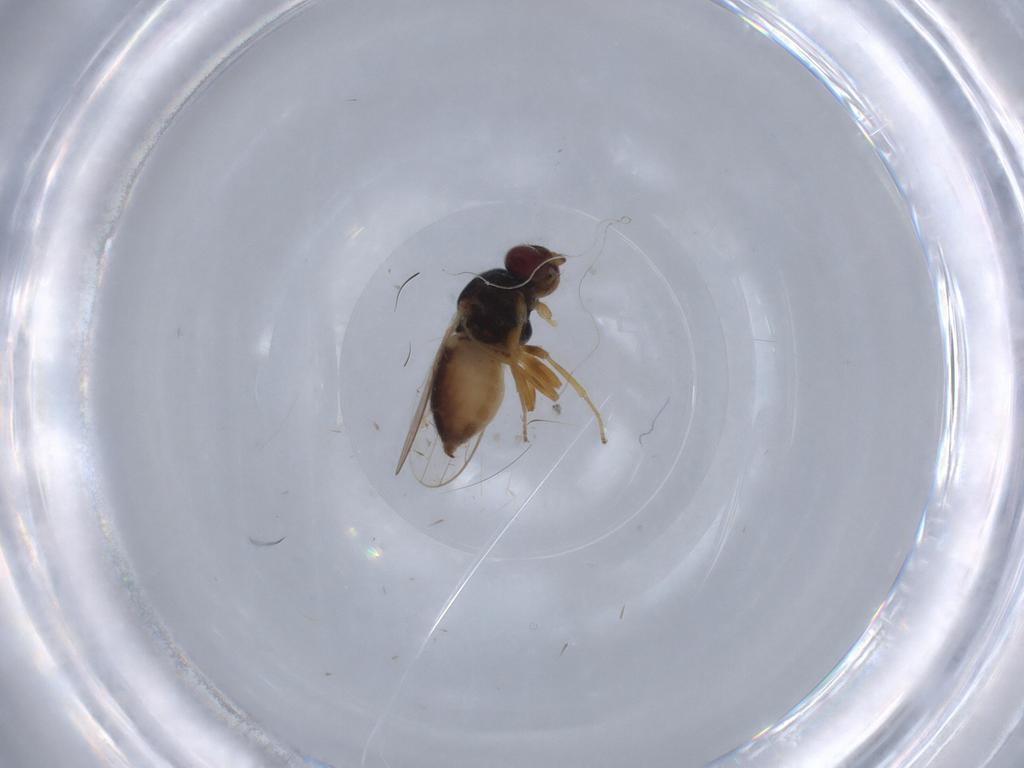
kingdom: Animalia
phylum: Arthropoda
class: Insecta
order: Diptera
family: Chloropidae
